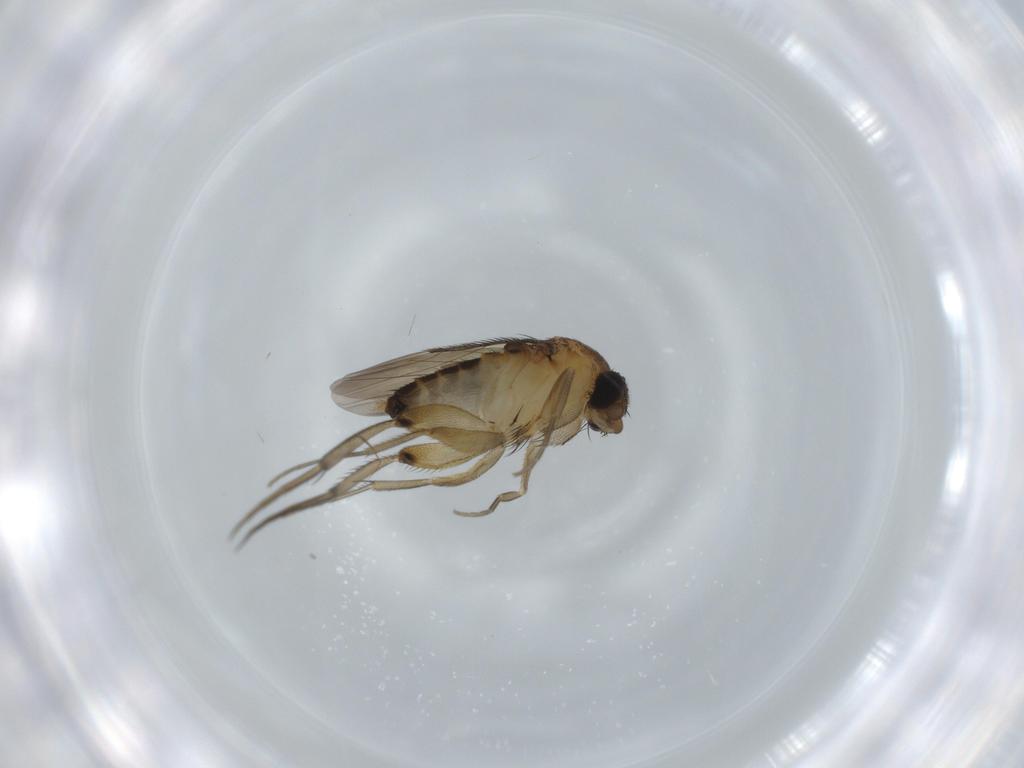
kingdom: Animalia
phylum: Arthropoda
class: Insecta
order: Diptera
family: Phoridae
